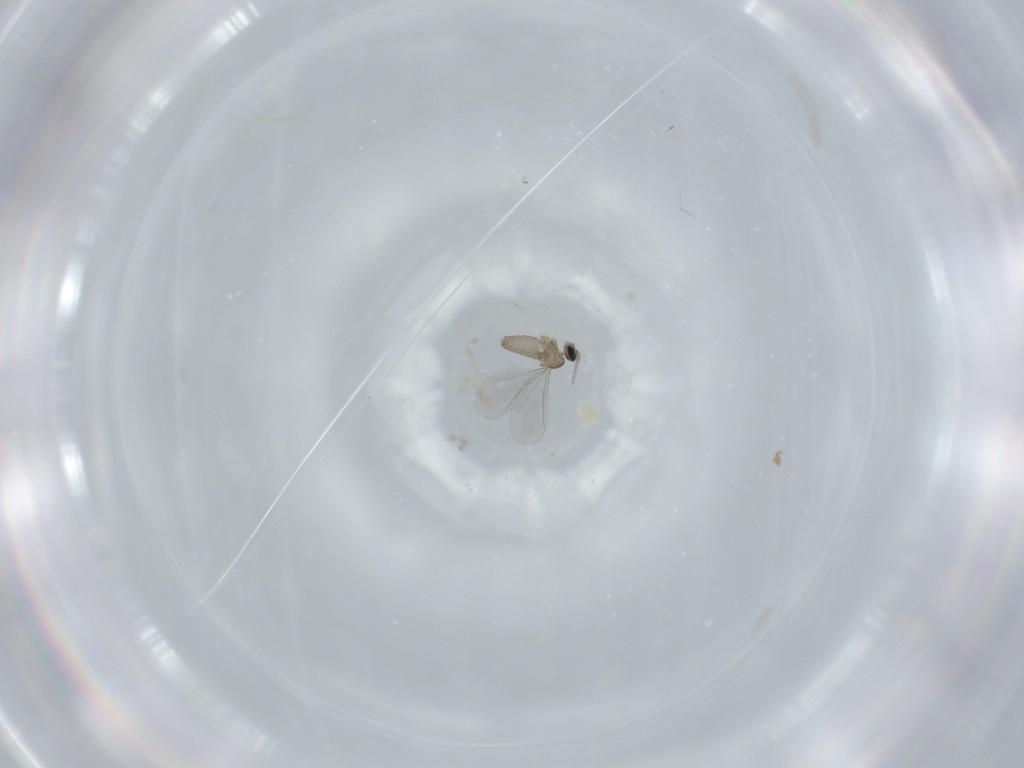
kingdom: Animalia
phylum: Arthropoda
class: Insecta
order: Diptera
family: Cecidomyiidae
